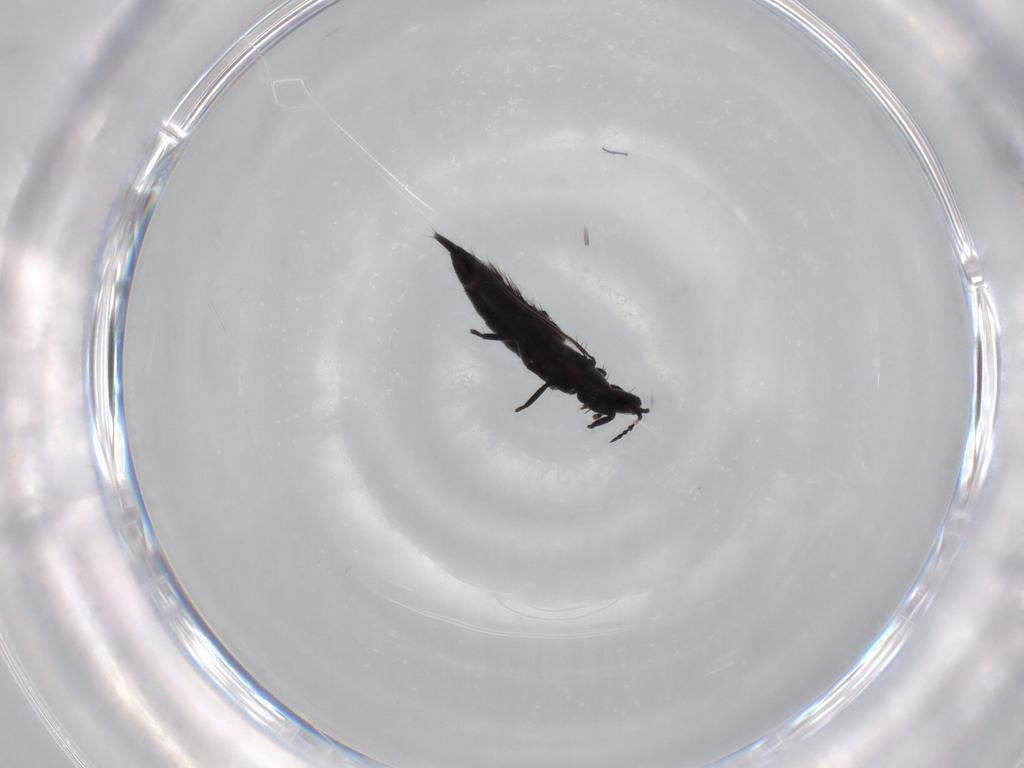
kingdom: Animalia
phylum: Arthropoda
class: Insecta
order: Thysanoptera
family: Phlaeothripidae
